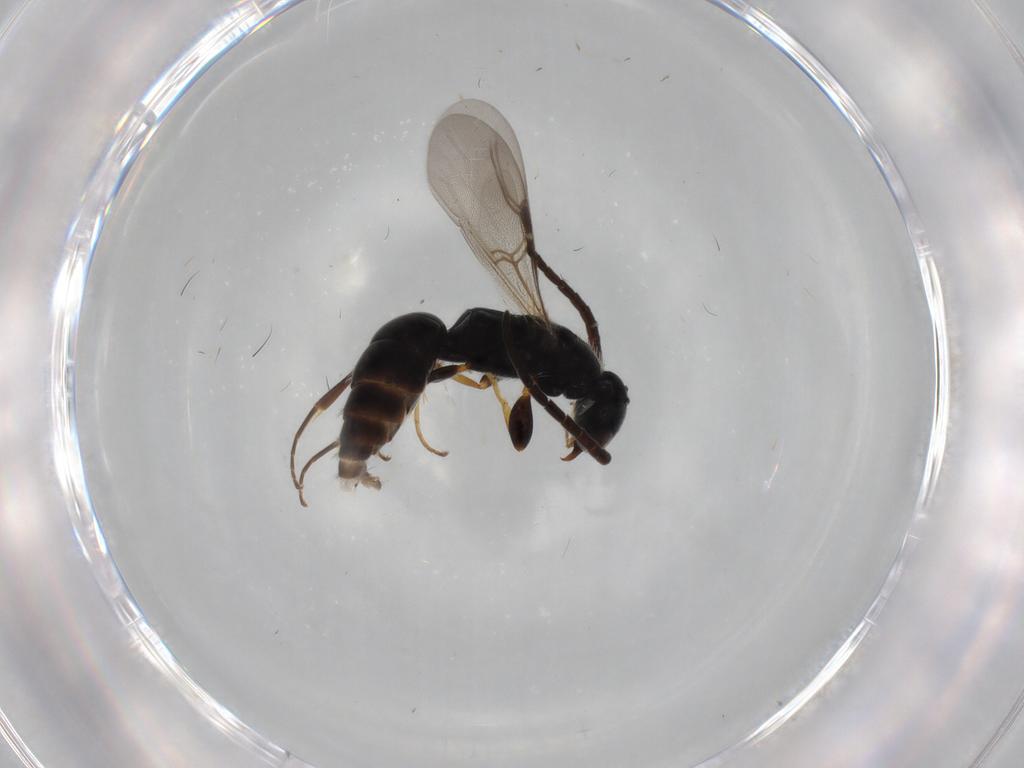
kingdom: Animalia
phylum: Arthropoda
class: Insecta
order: Hymenoptera
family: Bethylidae
